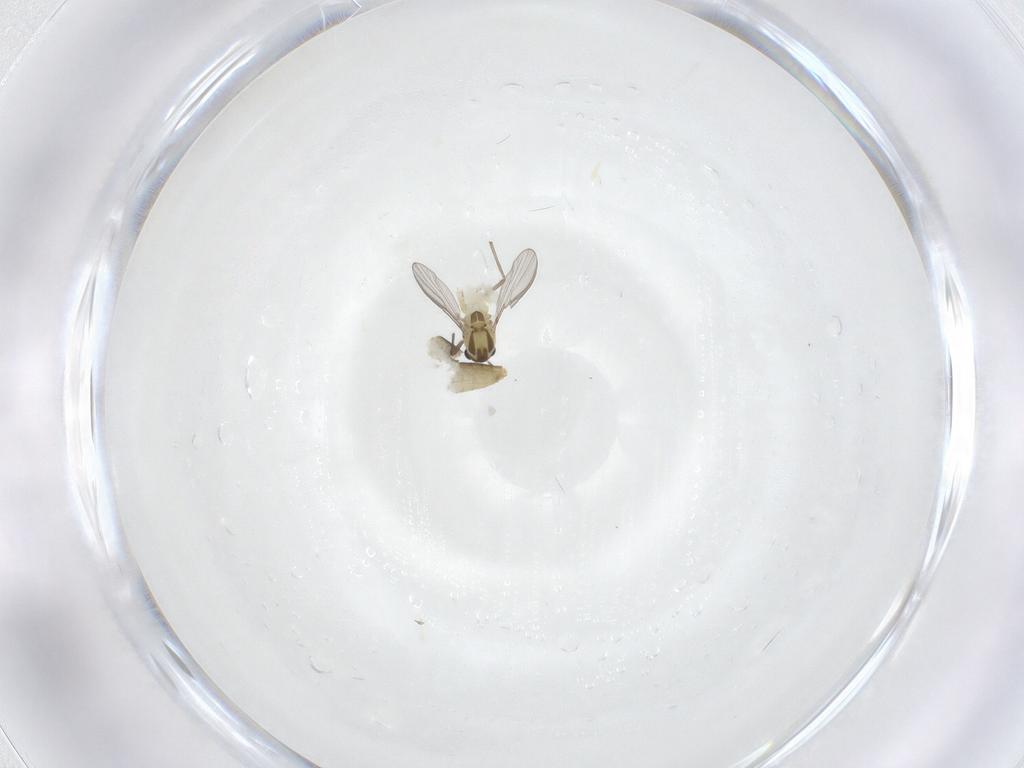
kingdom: Animalia
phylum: Arthropoda
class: Insecta
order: Diptera
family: Chironomidae
